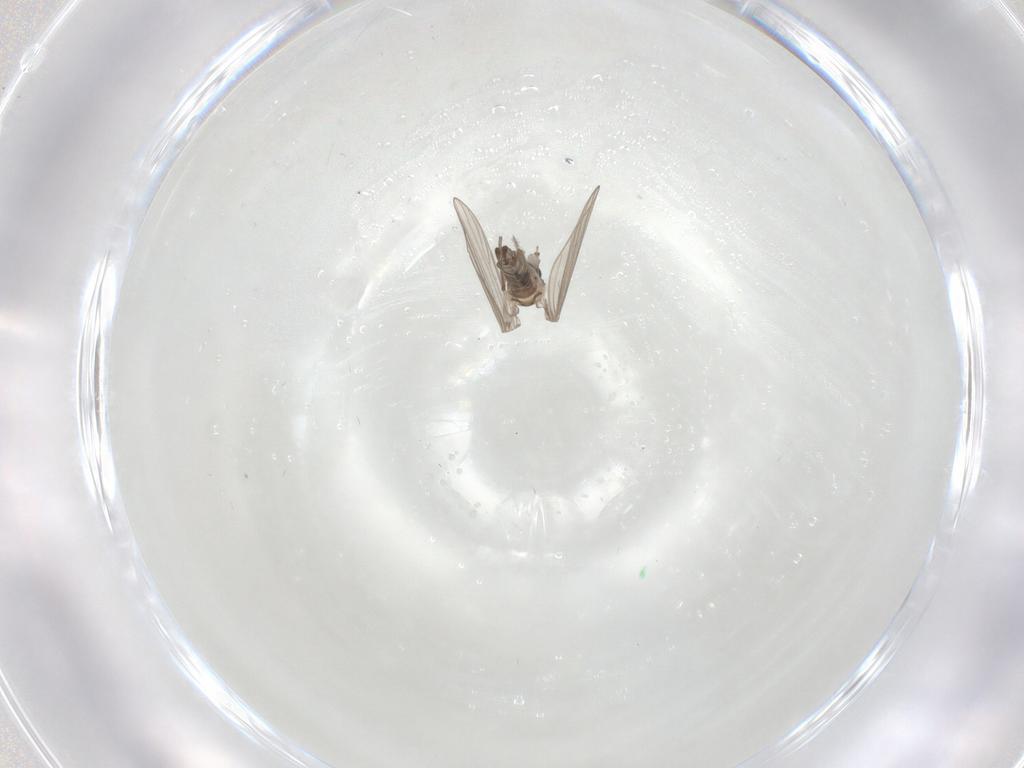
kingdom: Animalia
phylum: Arthropoda
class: Insecta
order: Diptera
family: Psychodidae
